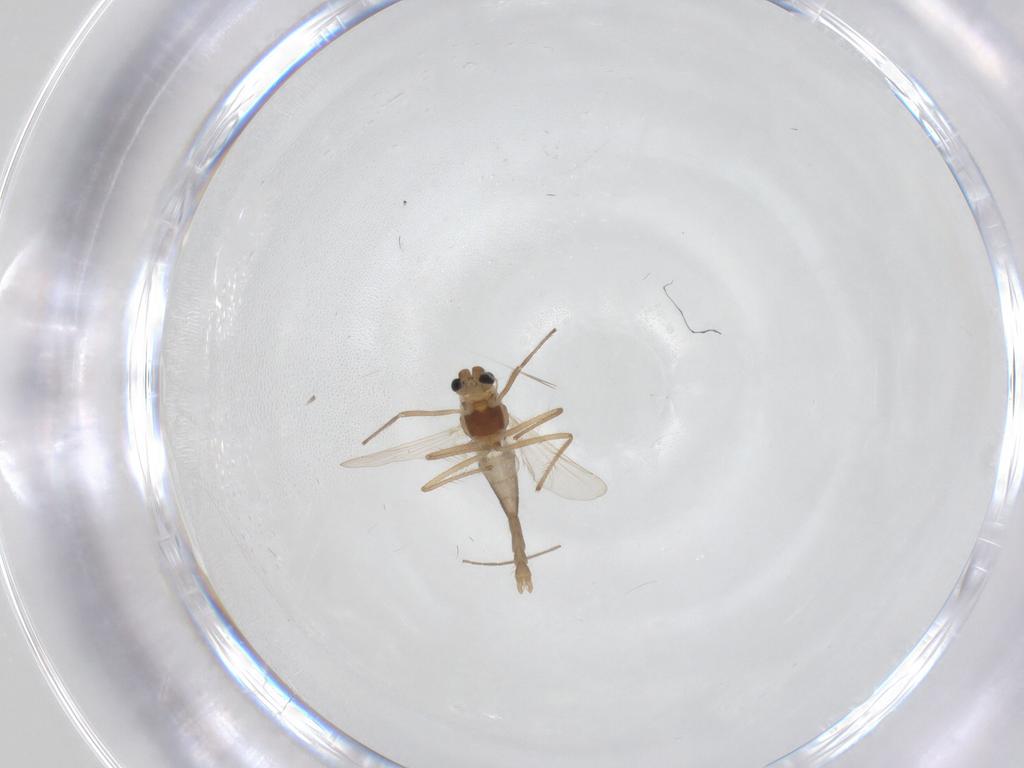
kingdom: Animalia
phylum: Arthropoda
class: Insecta
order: Diptera
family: Chironomidae
